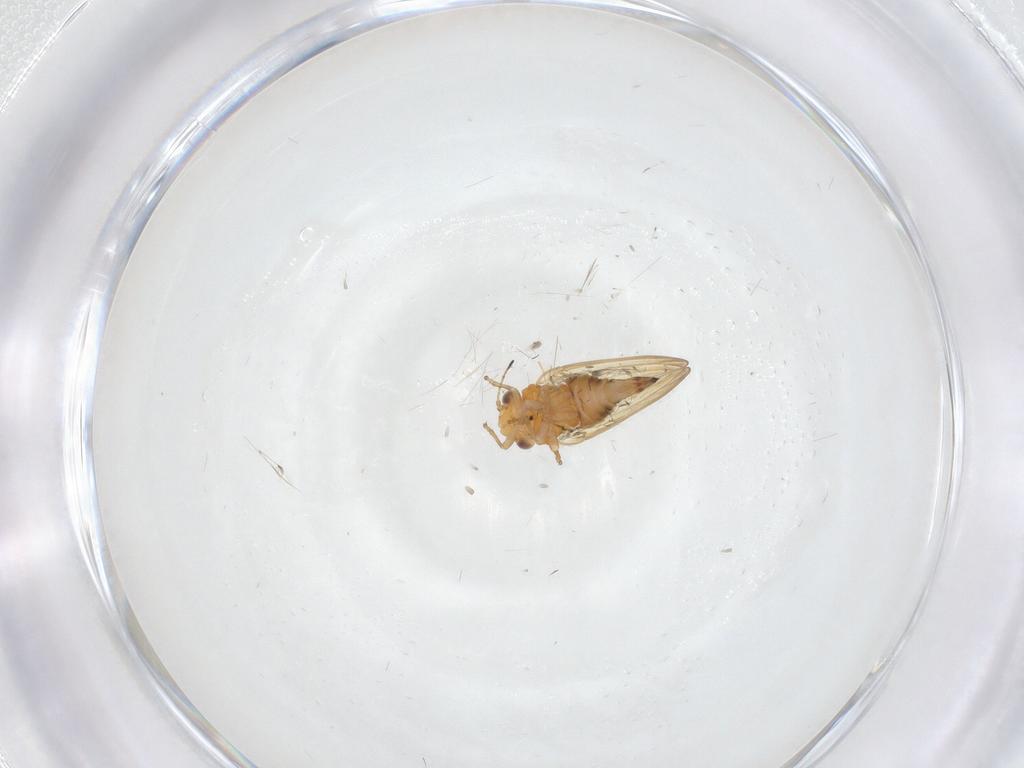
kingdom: Animalia
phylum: Arthropoda
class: Insecta
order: Hemiptera
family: Aphalaridae
